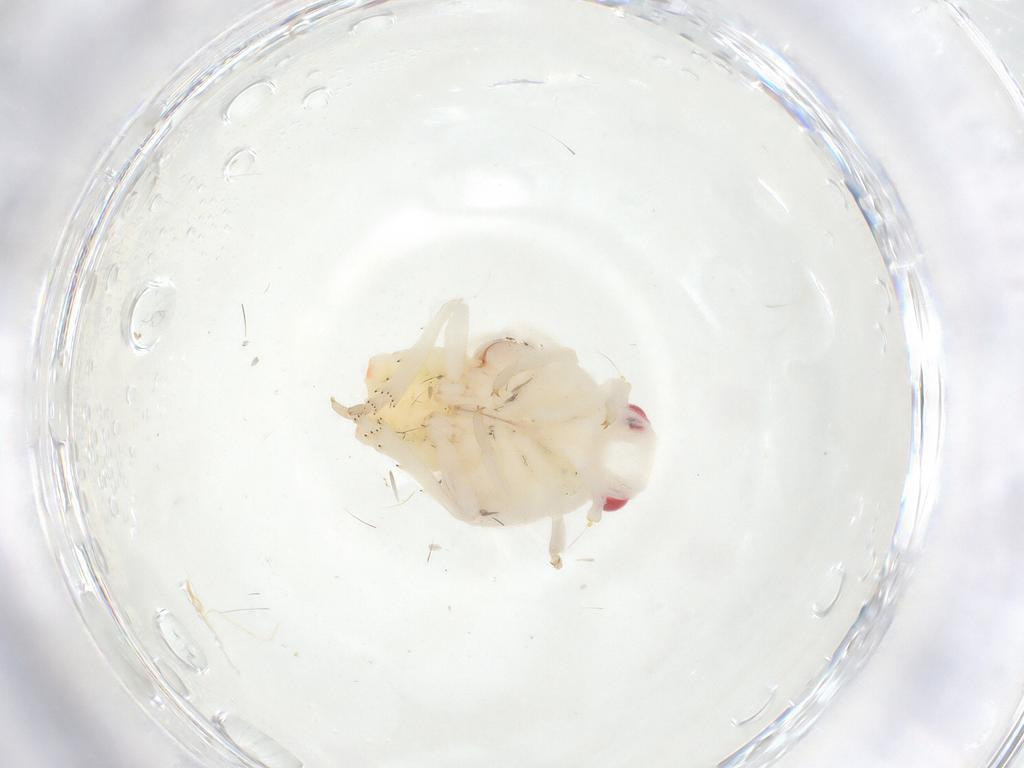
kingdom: Animalia
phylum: Arthropoda
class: Insecta
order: Hemiptera
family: Flatidae
